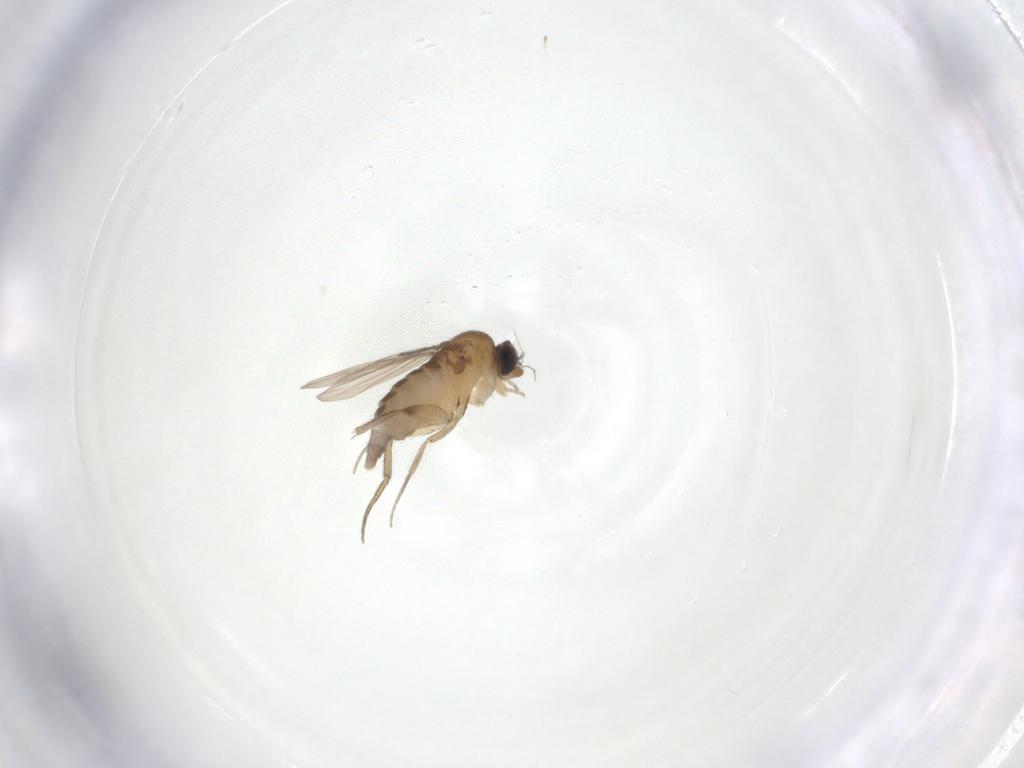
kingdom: Animalia
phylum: Arthropoda
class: Insecta
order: Diptera
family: Phoridae
